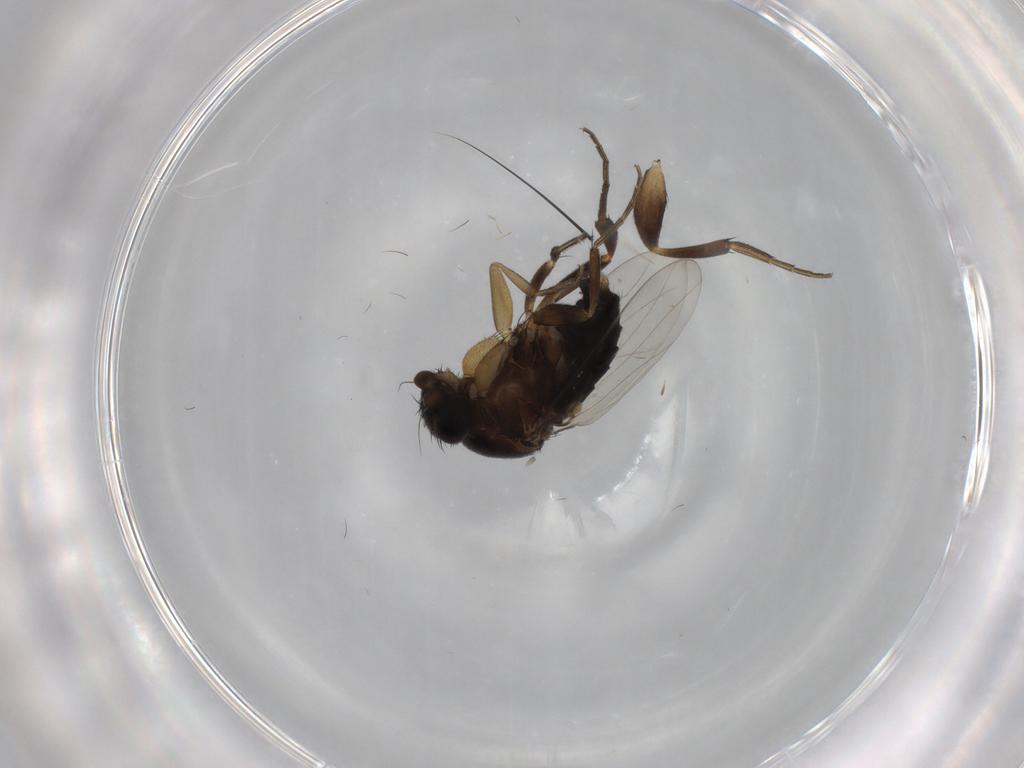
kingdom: Animalia
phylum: Arthropoda
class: Insecta
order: Diptera
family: Phoridae
